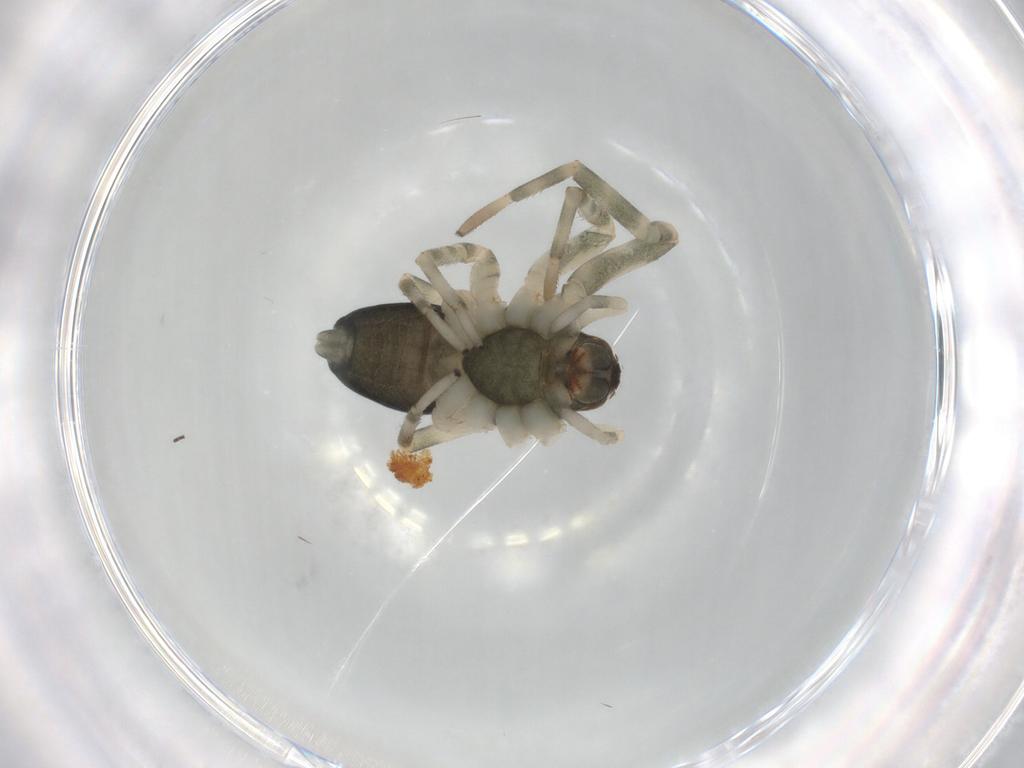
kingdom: Animalia
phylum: Arthropoda
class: Arachnida
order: Araneae
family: Trachelidae
